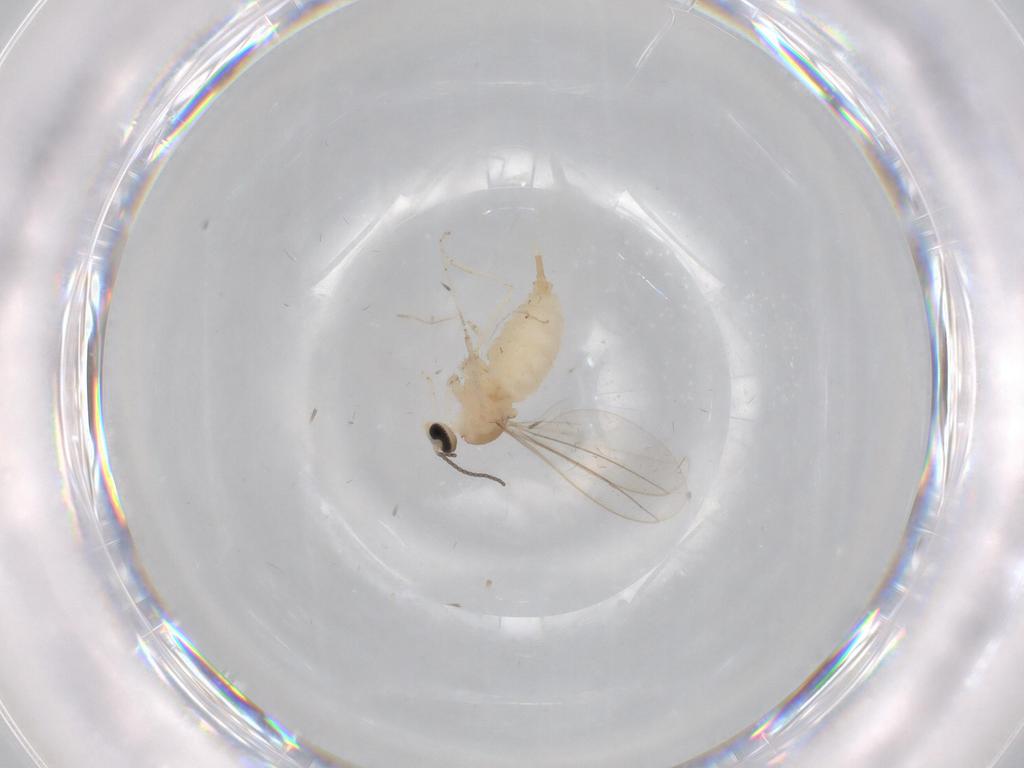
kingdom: Animalia
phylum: Arthropoda
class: Insecta
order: Diptera
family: Cecidomyiidae
